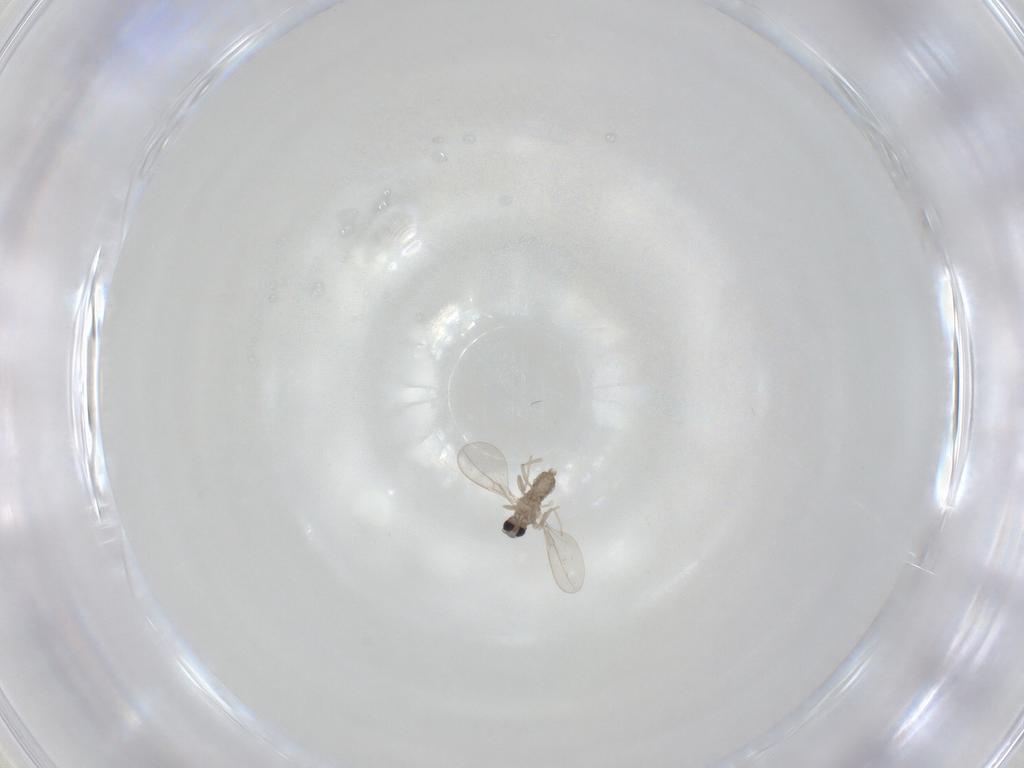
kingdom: Animalia
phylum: Arthropoda
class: Insecta
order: Diptera
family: Cecidomyiidae
